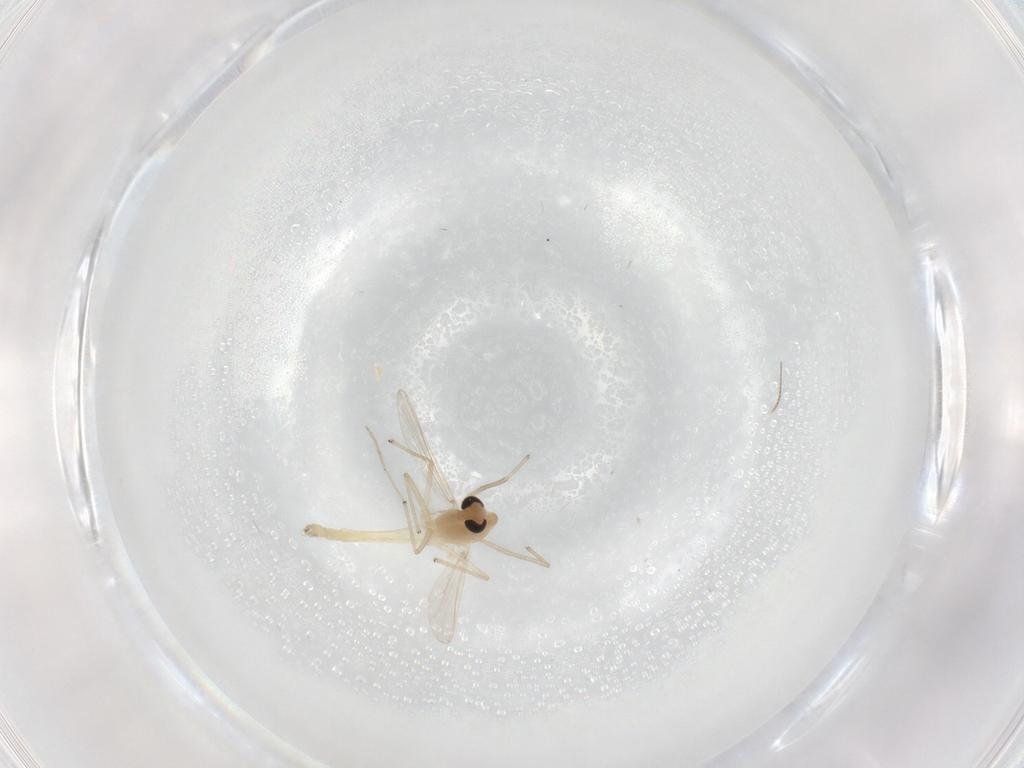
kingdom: Animalia
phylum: Arthropoda
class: Insecta
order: Diptera
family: Chironomidae
